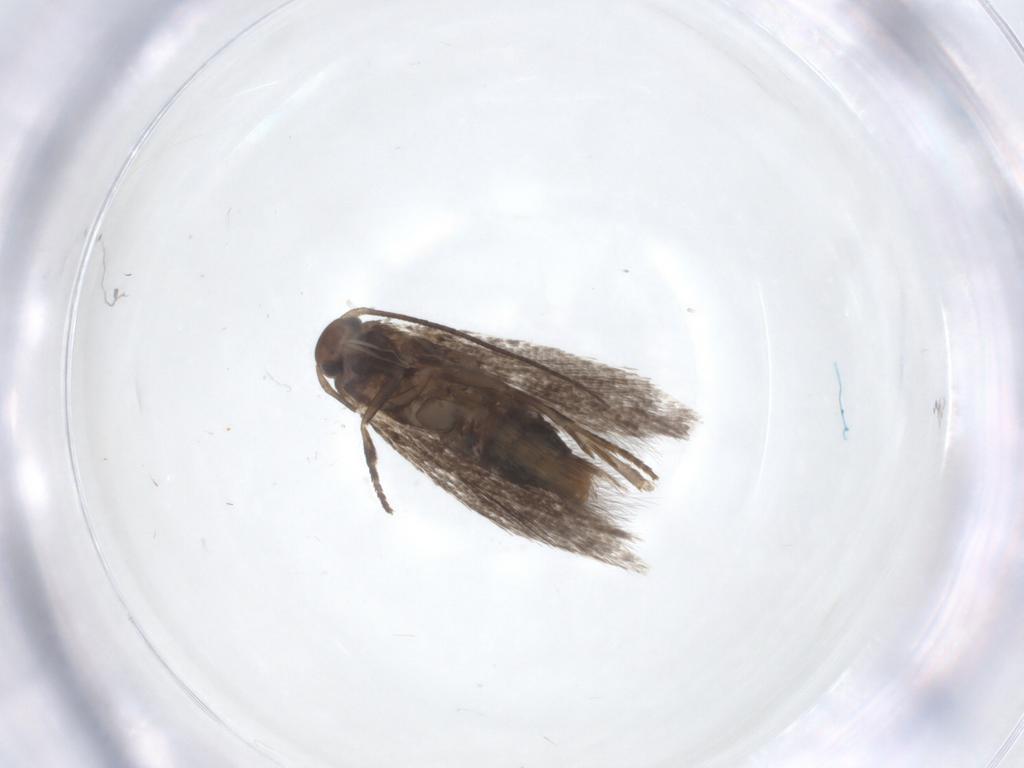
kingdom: Animalia
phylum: Arthropoda
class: Insecta
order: Lepidoptera
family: Elachistidae
